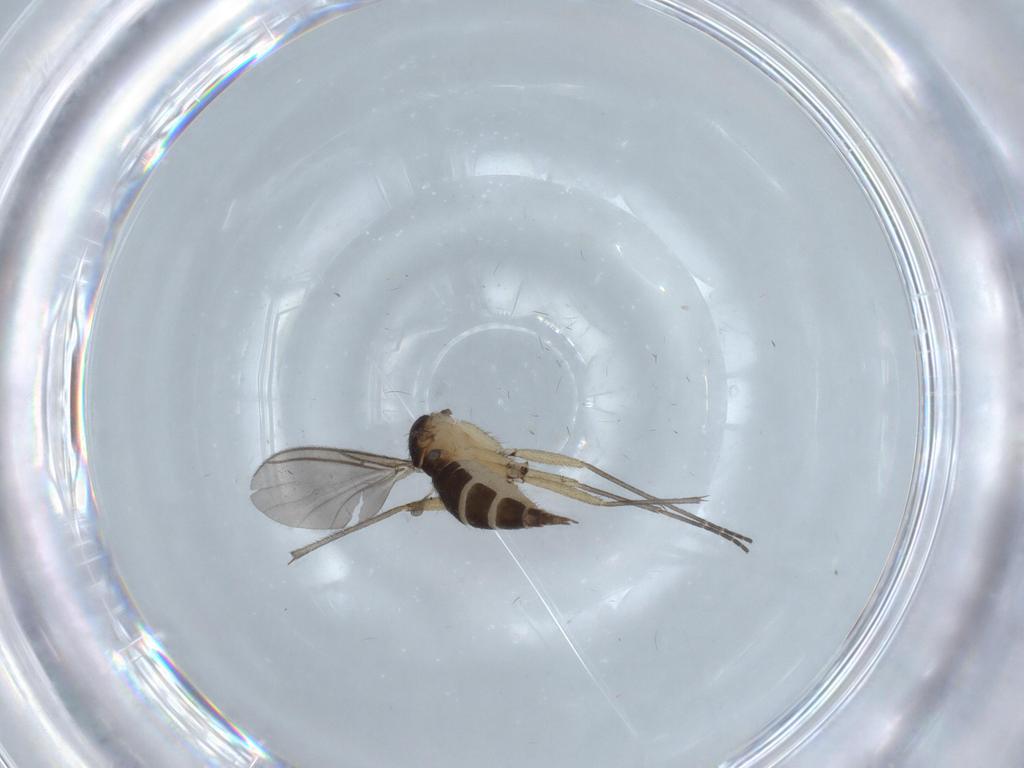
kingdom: Animalia
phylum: Arthropoda
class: Insecta
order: Diptera
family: Sciaridae
